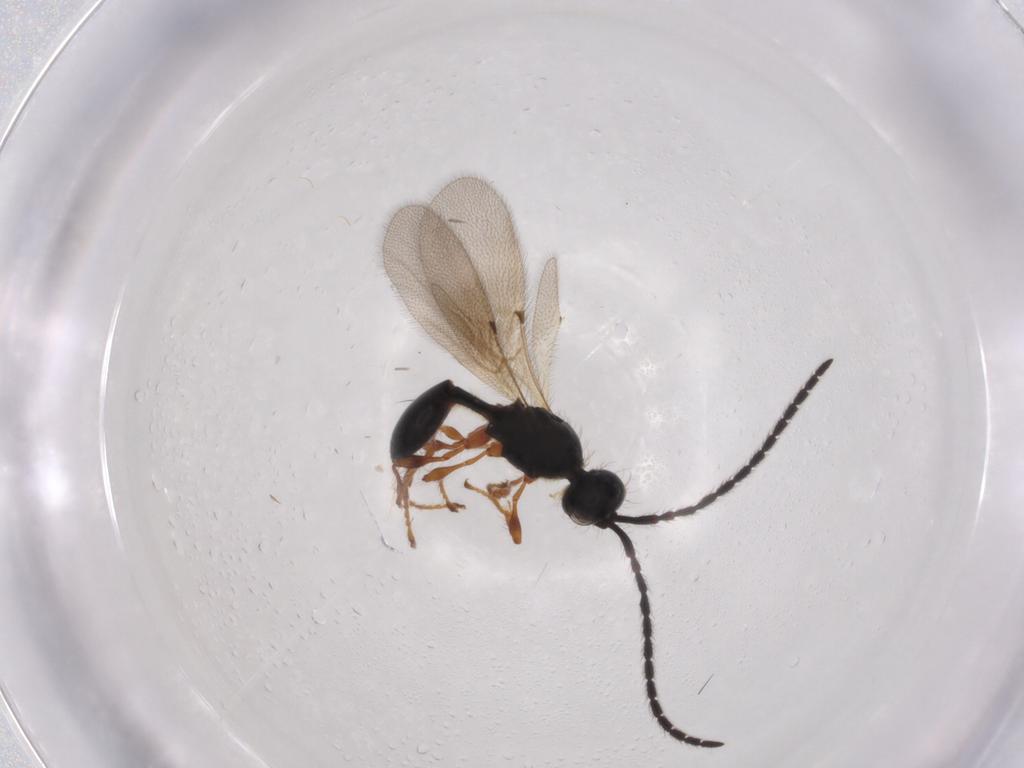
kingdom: Animalia
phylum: Arthropoda
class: Insecta
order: Hymenoptera
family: Diapriidae
